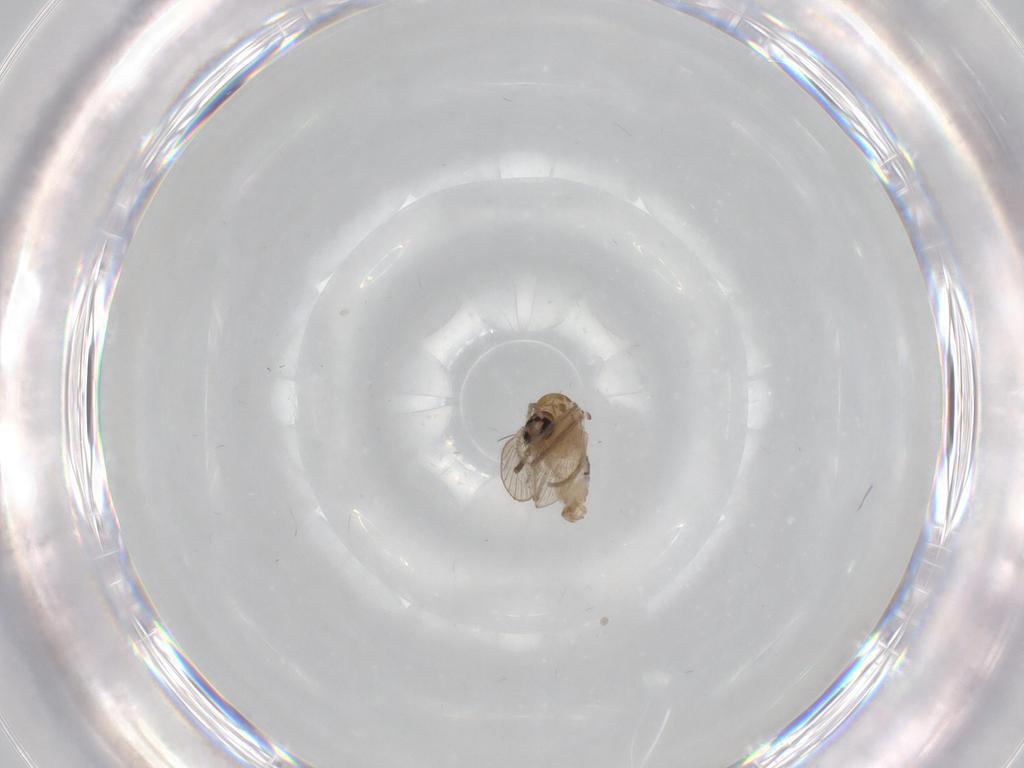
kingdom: Animalia
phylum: Arthropoda
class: Insecta
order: Diptera
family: Psychodidae
